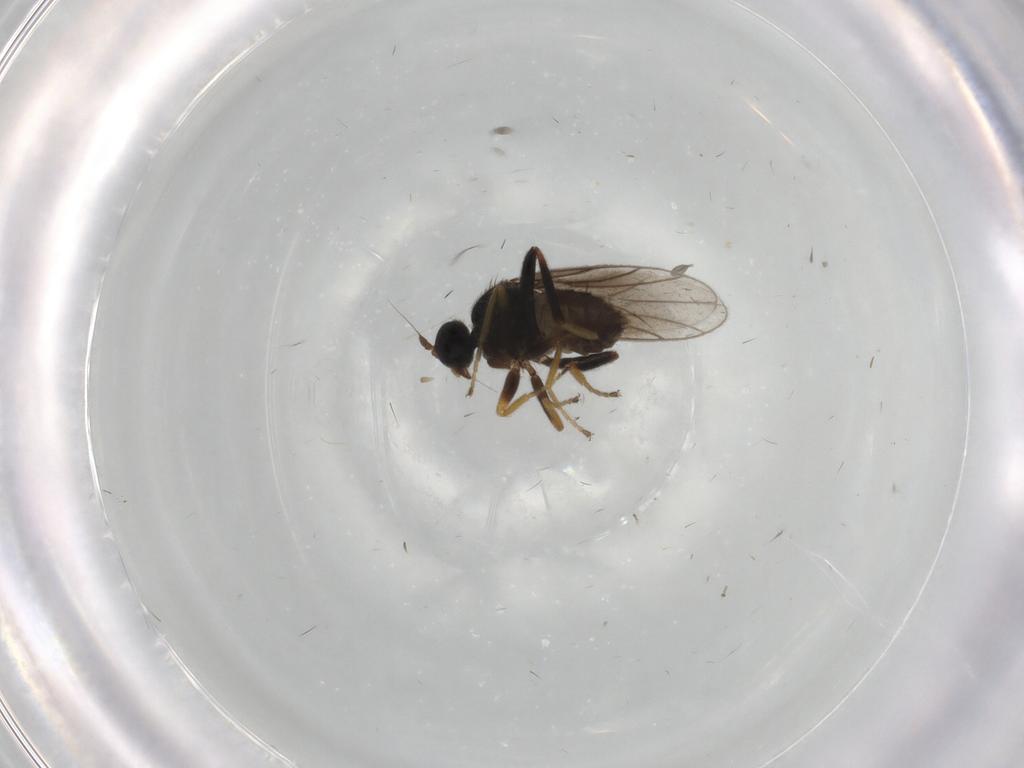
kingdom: Animalia
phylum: Arthropoda
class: Insecta
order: Diptera
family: Hybotidae
